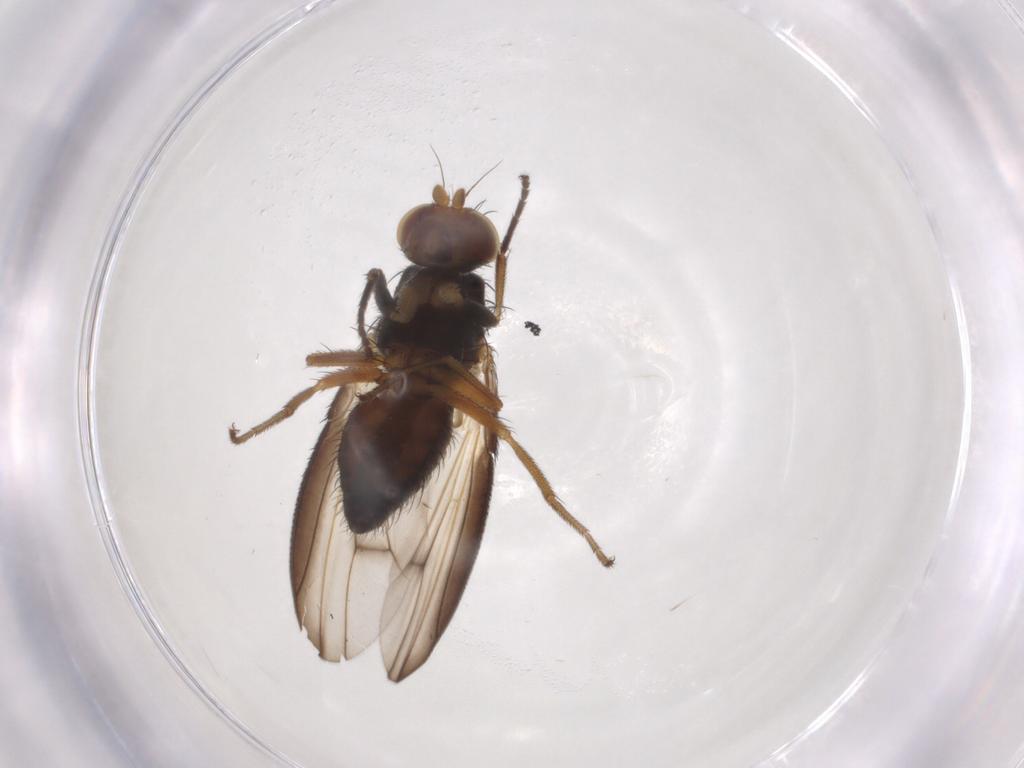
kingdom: Animalia
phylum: Arthropoda
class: Insecta
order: Diptera
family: Heleomyzidae
